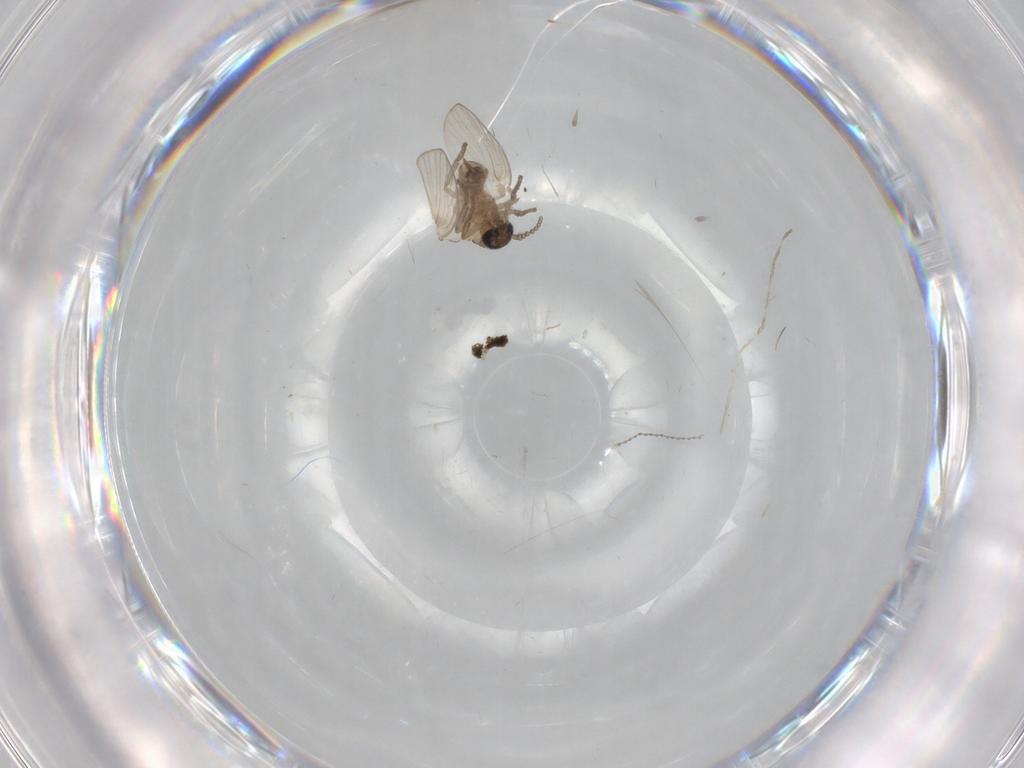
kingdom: Animalia
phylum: Arthropoda
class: Insecta
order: Diptera
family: Psychodidae
